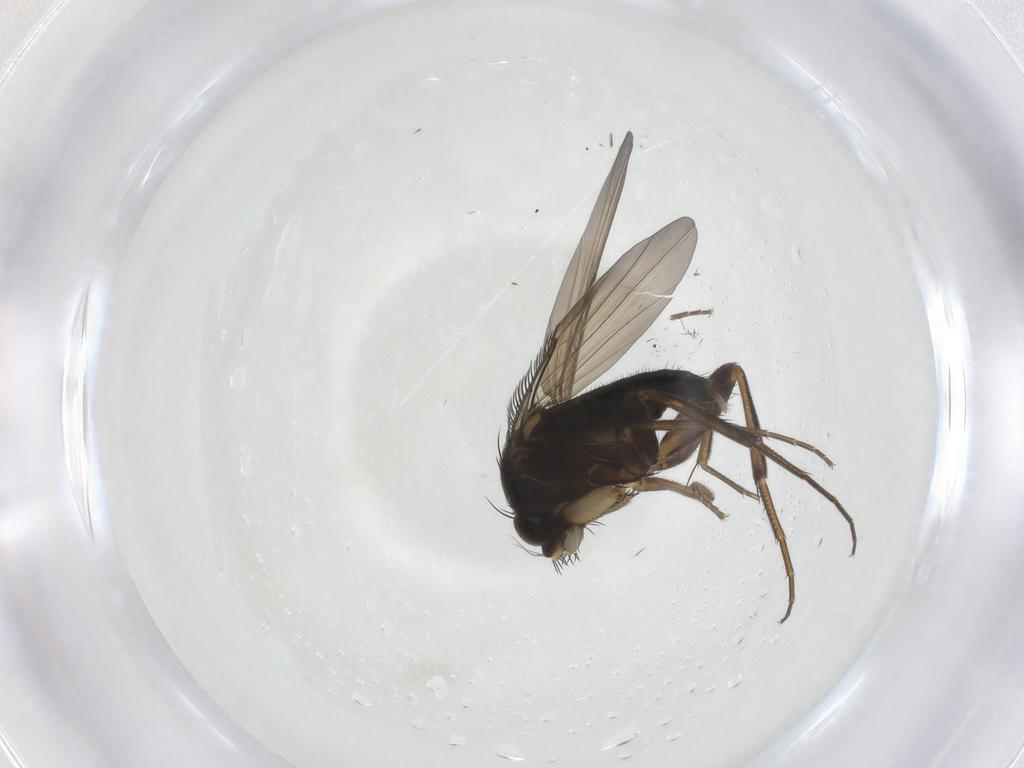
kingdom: Animalia
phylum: Arthropoda
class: Insecta
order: Diptera
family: Phoridae
